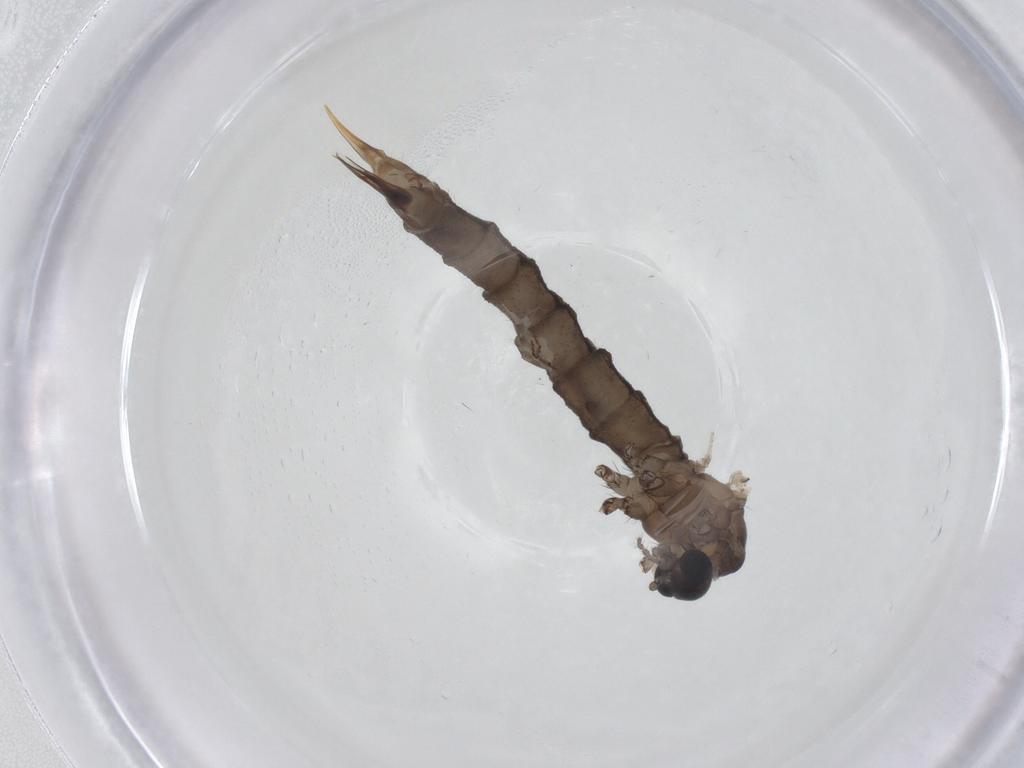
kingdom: Animalia
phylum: Arthropoda
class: Insecta
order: Diptera
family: Limoniidae
